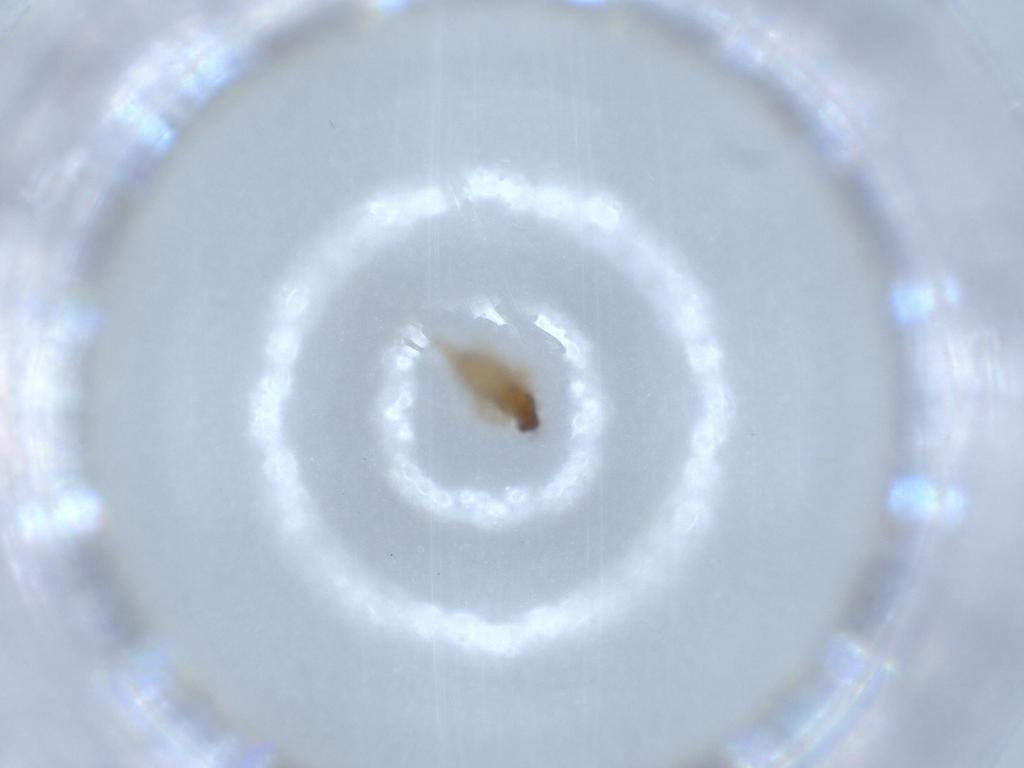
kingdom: Animalia
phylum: Arthropoda
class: Insecta
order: Diptera
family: Cecidomyiidae
